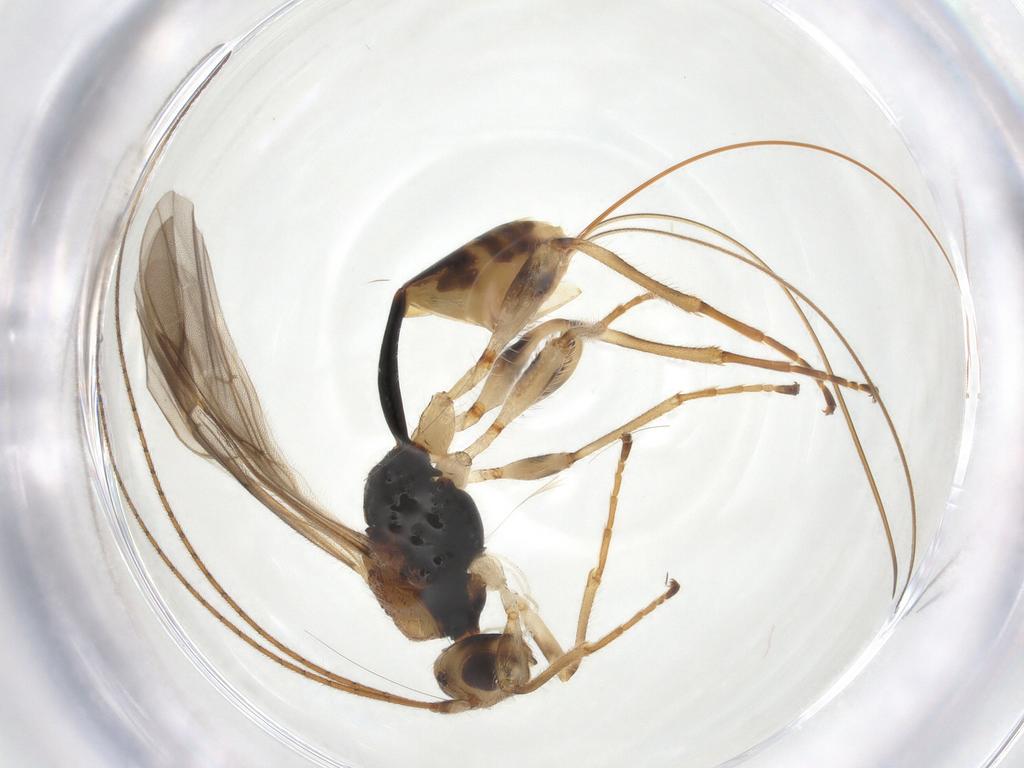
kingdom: Animalia
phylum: Arthropoda
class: Insecta
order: Hymenoptera
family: Braconidae
